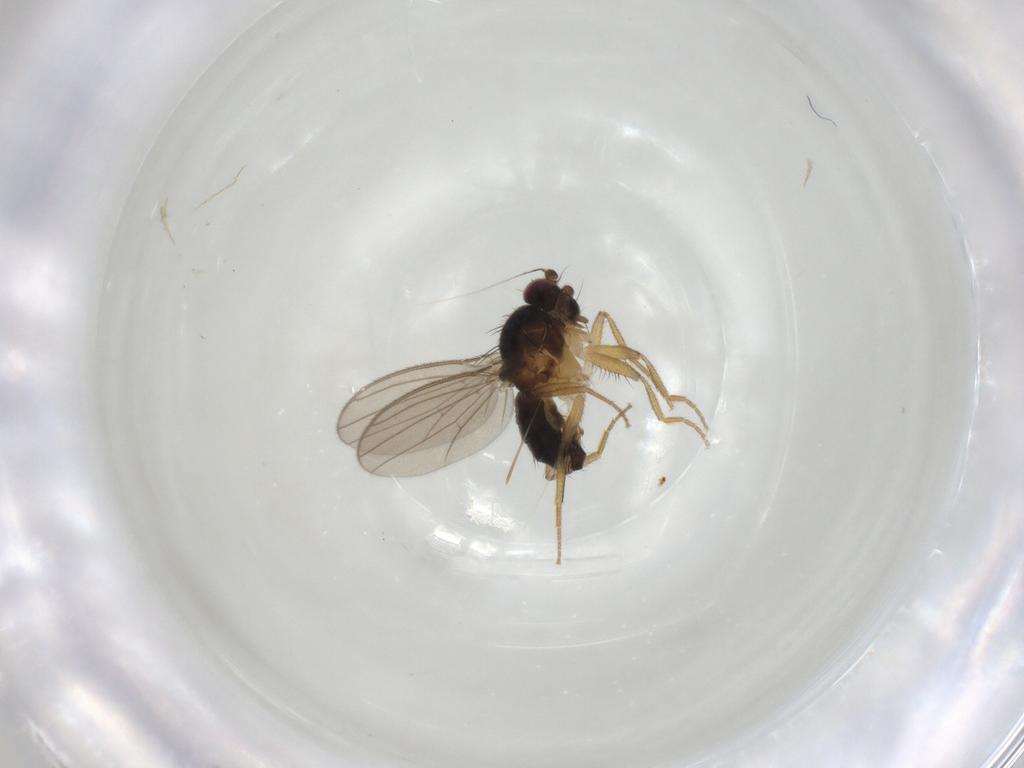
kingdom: Animalia
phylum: Arthropoda
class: Insecta
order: Diptera
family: Inbiomyiidae
